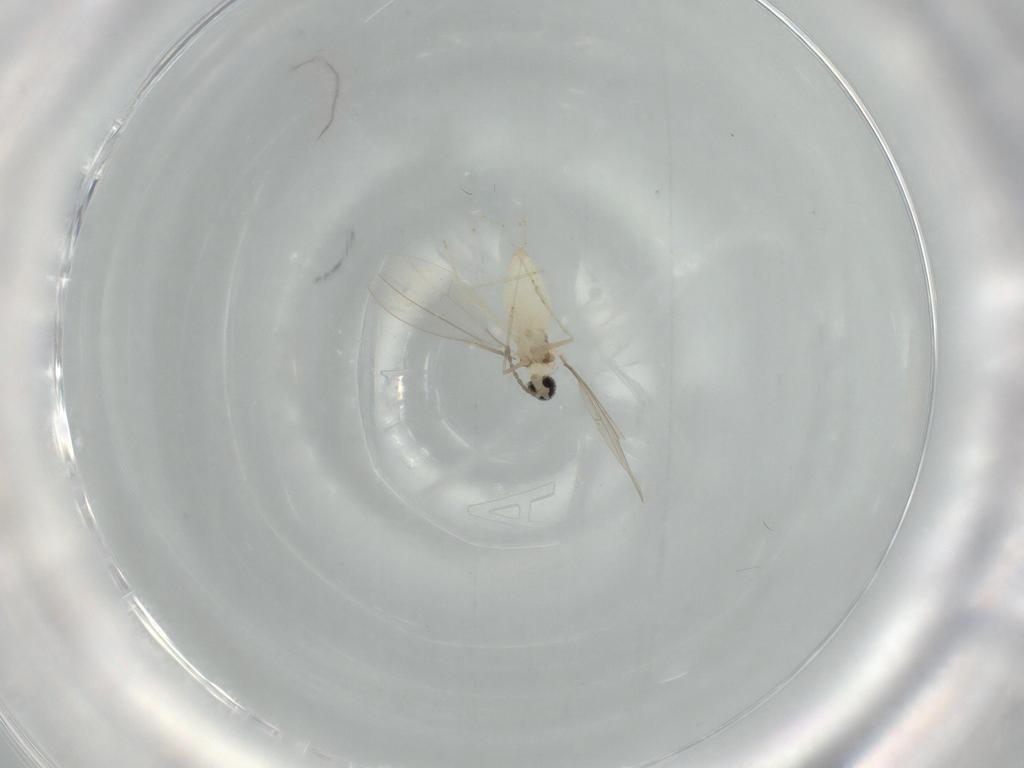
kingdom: Animalia
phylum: Arthropoda
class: Insecta
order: Diptera
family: Cecidomyiidae
